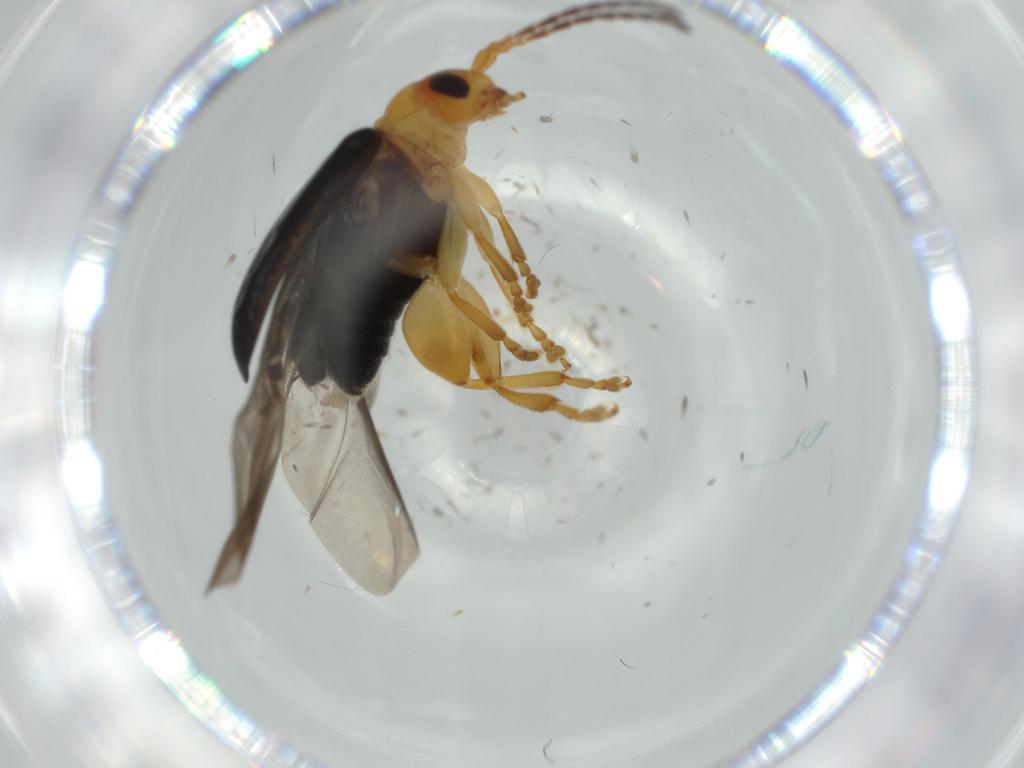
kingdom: Animalia
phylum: Arthropoda
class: Insecta
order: Coleoptera
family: Chrysomelidae
